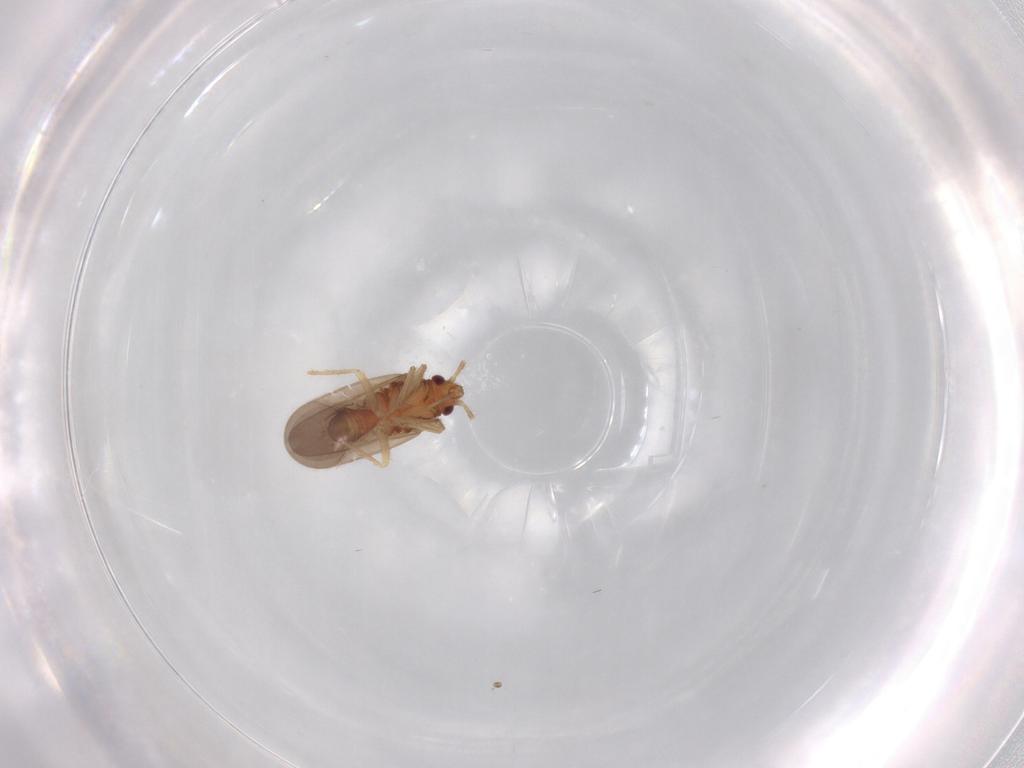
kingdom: Animalia
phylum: Arthropoda
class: Insecta
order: Hemiptera
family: Ceratocombidae
